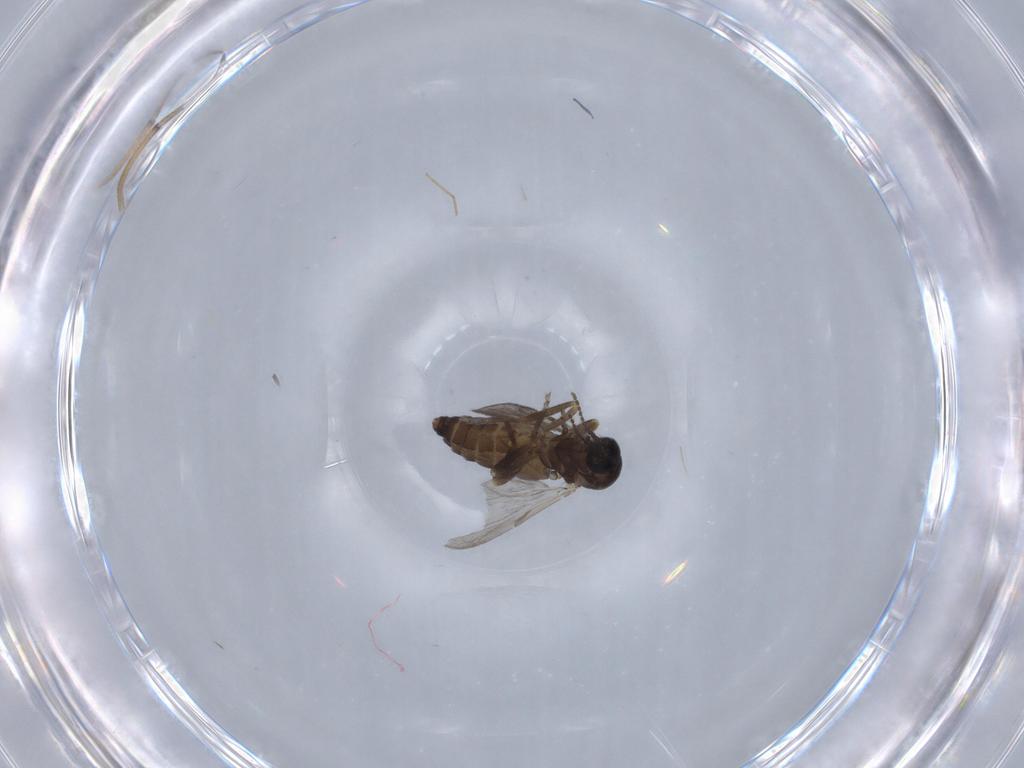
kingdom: Animalia
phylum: Arthropoda
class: Insecta
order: Diptera
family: Ceratopogonidae
